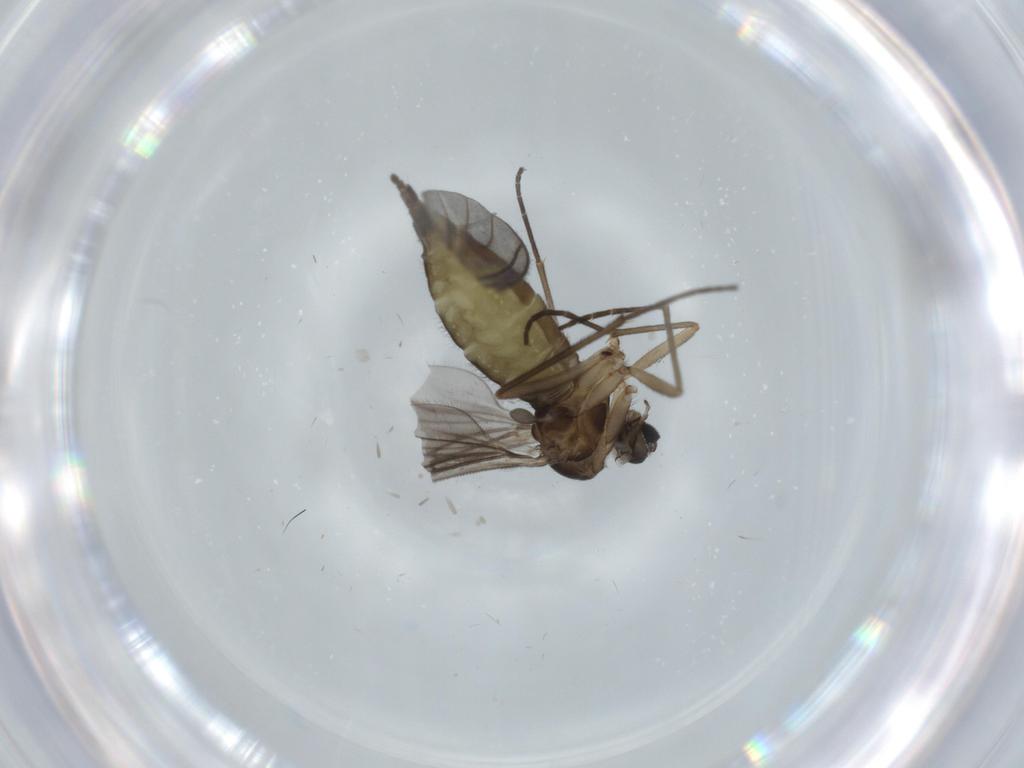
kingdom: Animalia
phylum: Arthropoda
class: Insecta
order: Diptera
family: Sciaridae
